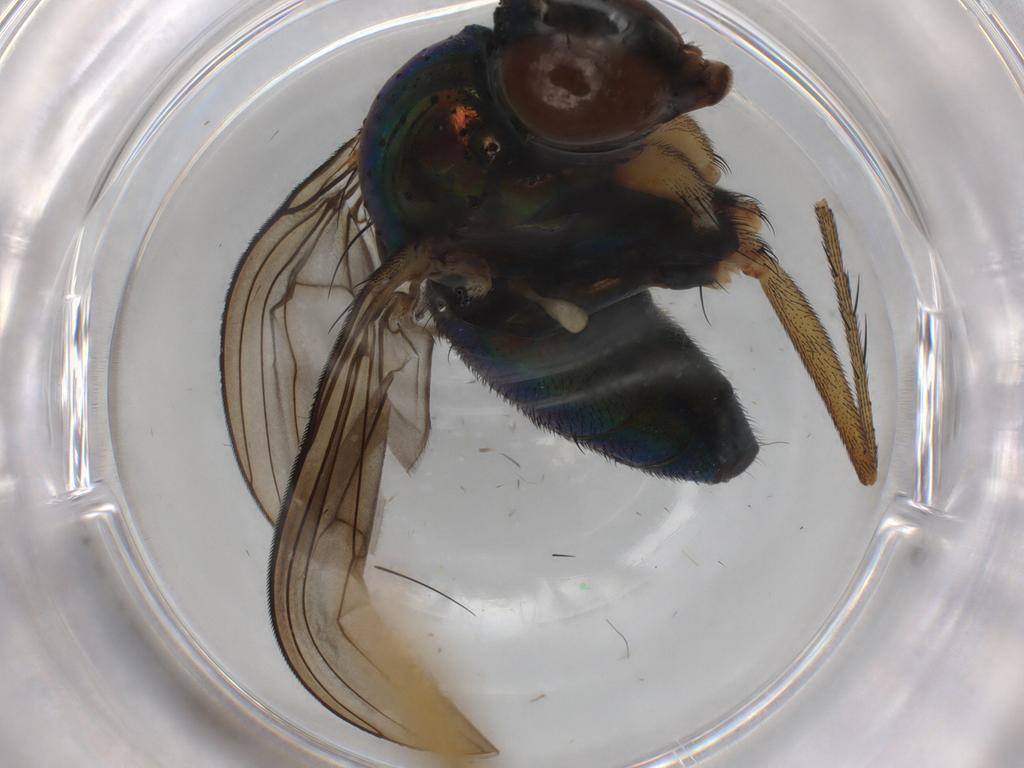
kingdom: Animalia
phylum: Arthropoda
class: Insecta
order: Diptera
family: Dolichopodidae
